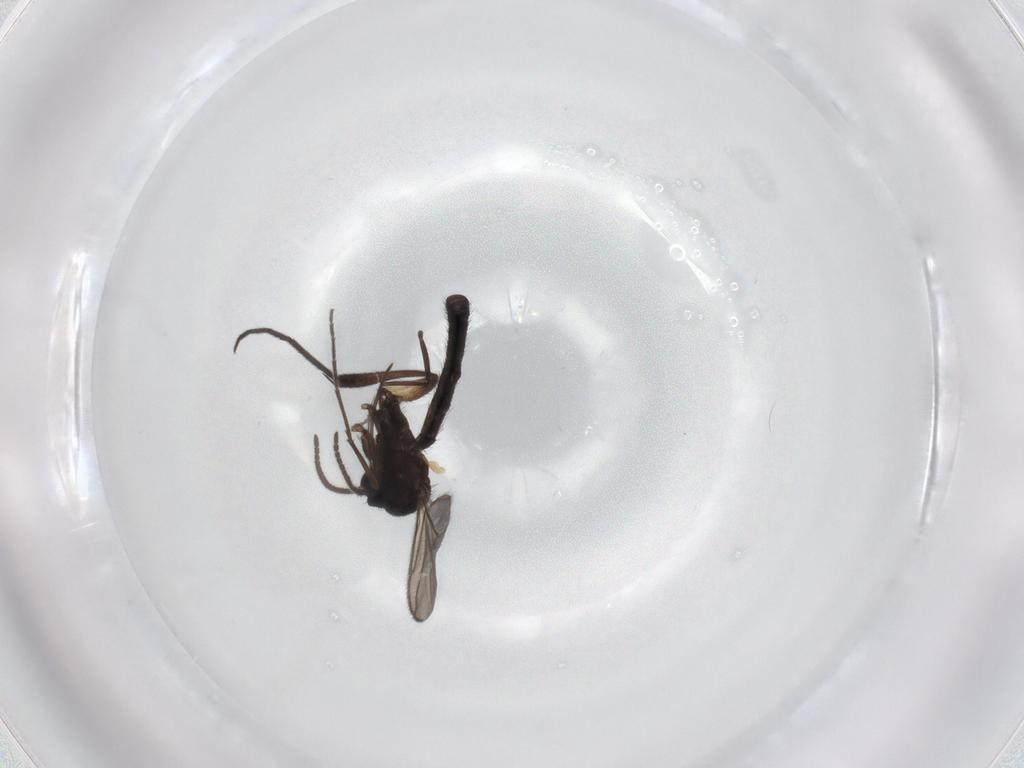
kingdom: Animalia
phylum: Arthropoda
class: Insecta
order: Diptera
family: Keroplatidae
